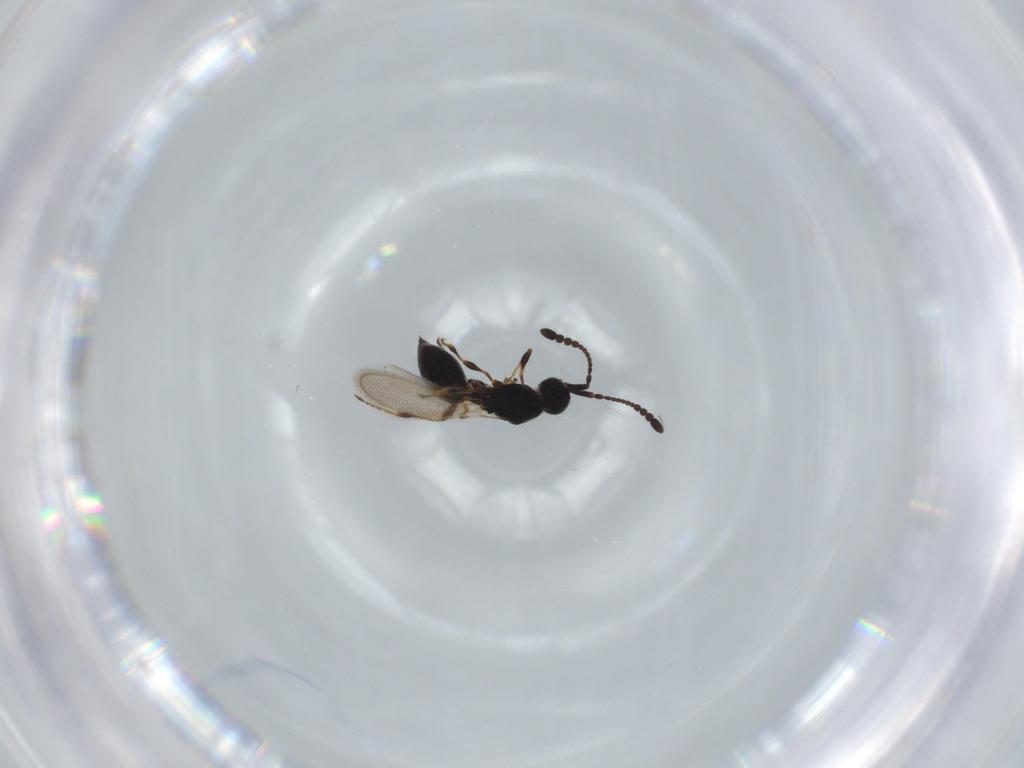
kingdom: Animalia
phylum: Arthropoda
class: Insecta
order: Hymenoptera
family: Diapriidae
